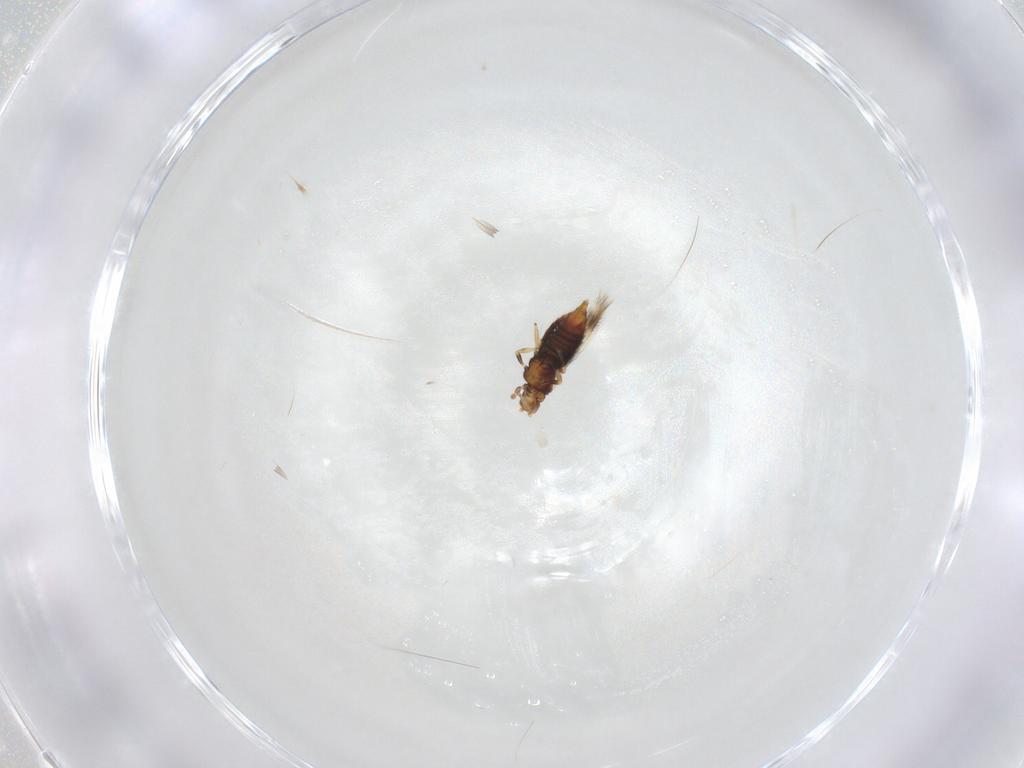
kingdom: Animalia
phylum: Arthropoda
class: Insecta
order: Thysanoptera
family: Thripidae
